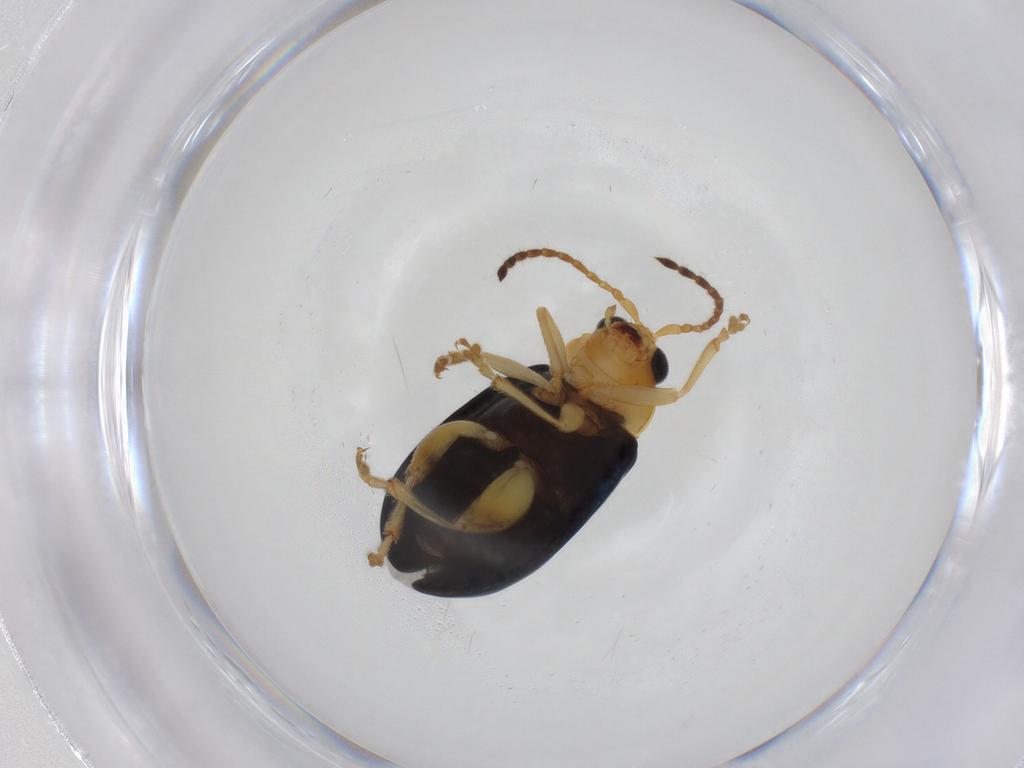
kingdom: Animalia
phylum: Arthropoda
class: Insecta
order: Coleoptera
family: Chrysomelidae
